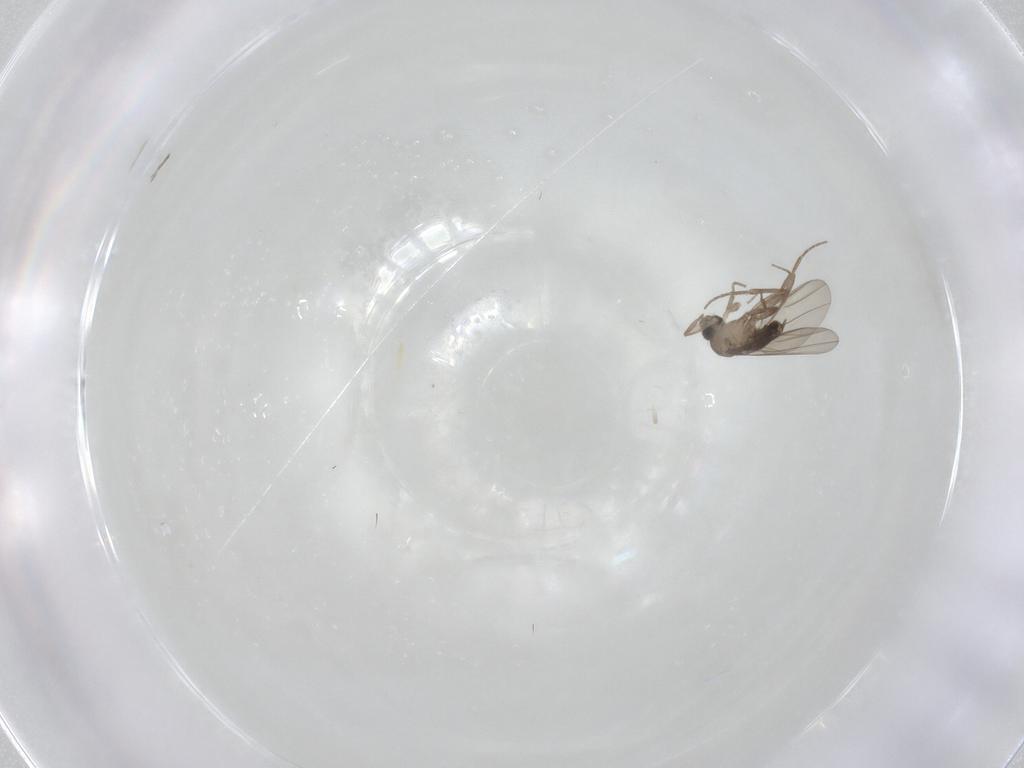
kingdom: Animalia
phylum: Arthropoda
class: Insecta
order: Diptera
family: Phoridae
